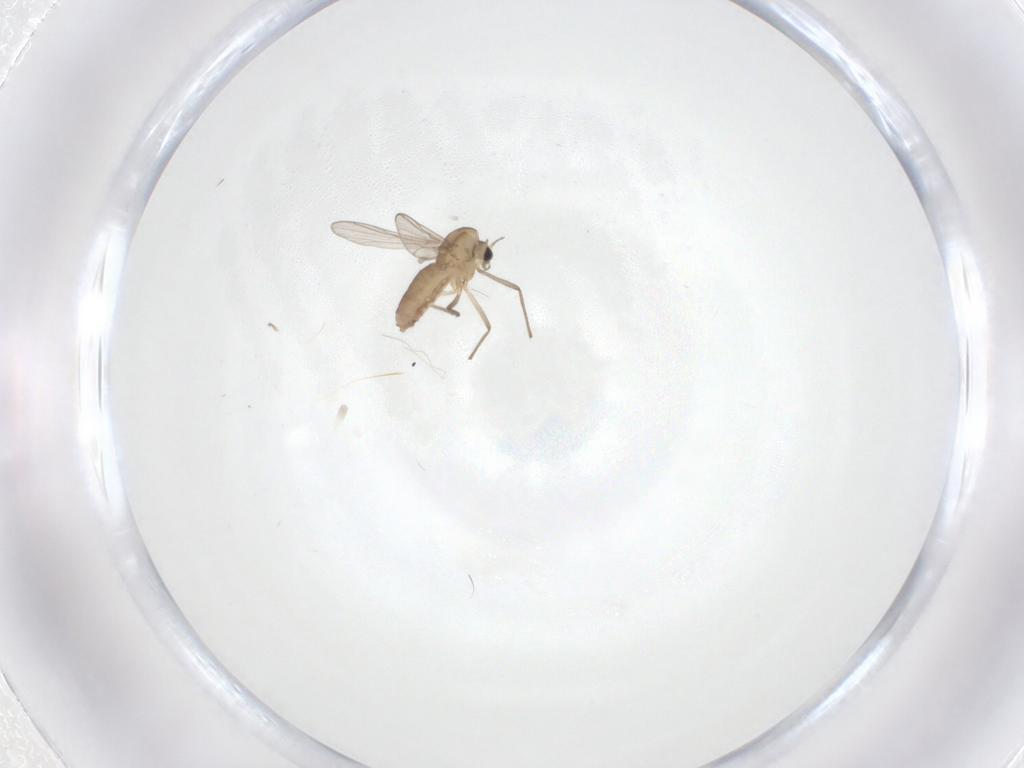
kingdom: Animalia
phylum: Arthropoda
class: Insecta
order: Diptera
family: Chironomidae
